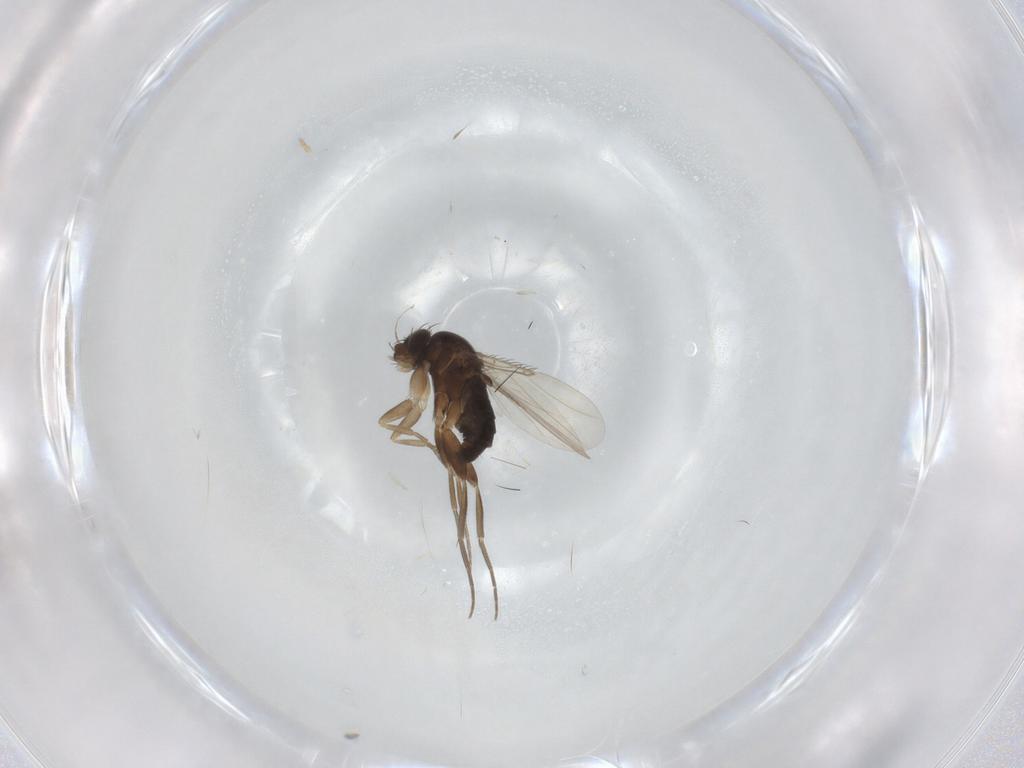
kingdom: Animalia
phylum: Arthropoda
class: Insecta
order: Diptera
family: Phoridae
